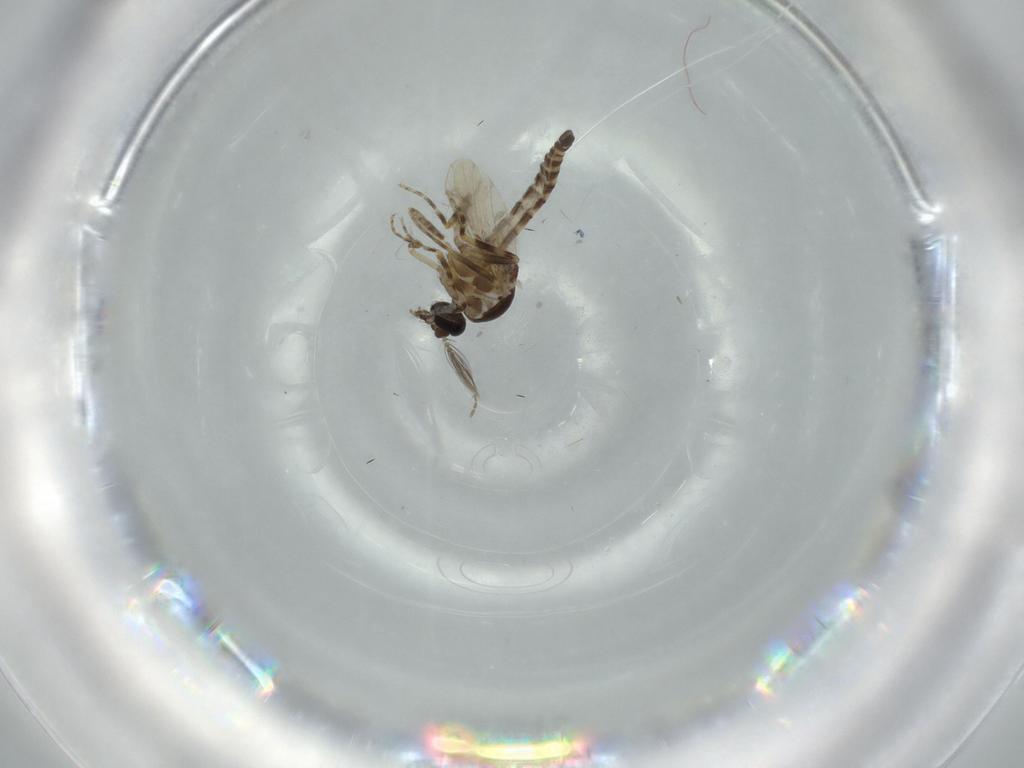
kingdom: Animalia
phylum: Arthropoda
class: Insecta
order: Diptera
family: Ceratopogonidae
